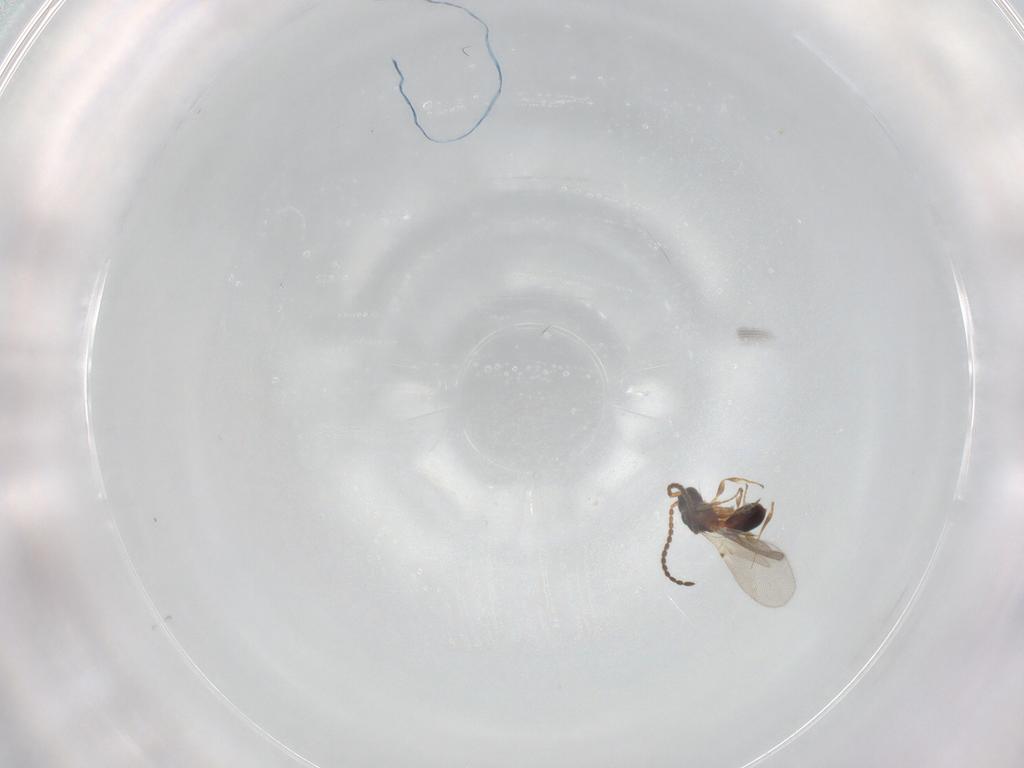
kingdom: Animalia
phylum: Arthropoda
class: Insecta
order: Hymenoptera
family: Diapriidae
